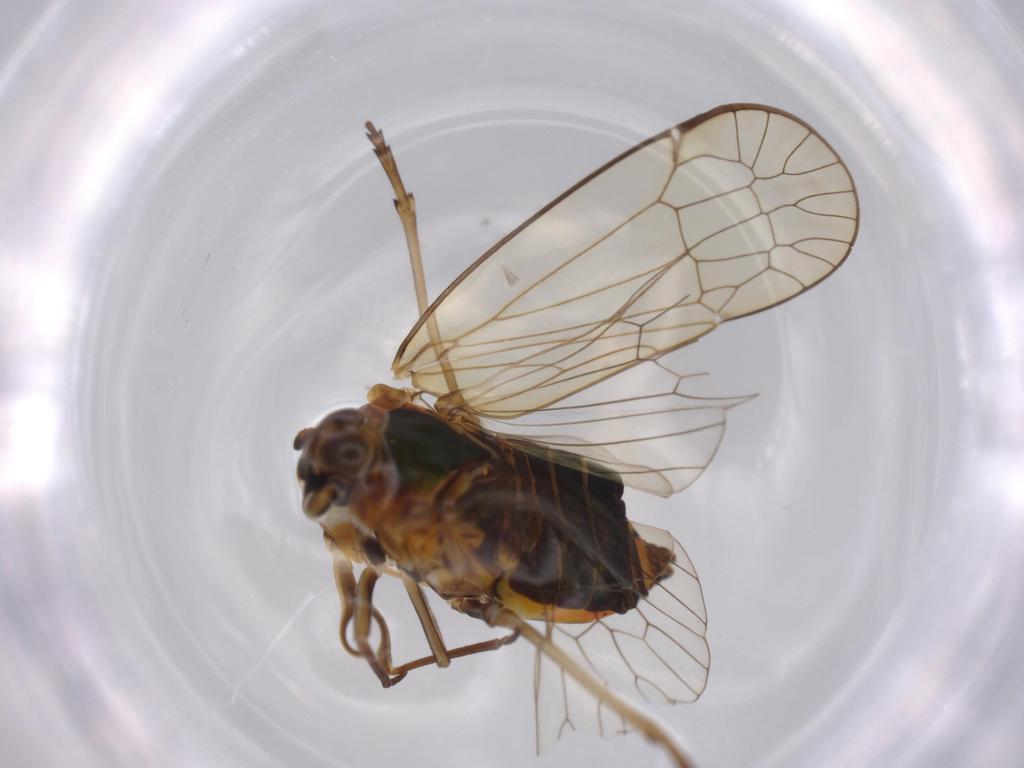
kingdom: Animalia
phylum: Arthropoda
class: Insecta
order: Hemiptera
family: Kinnaridae
